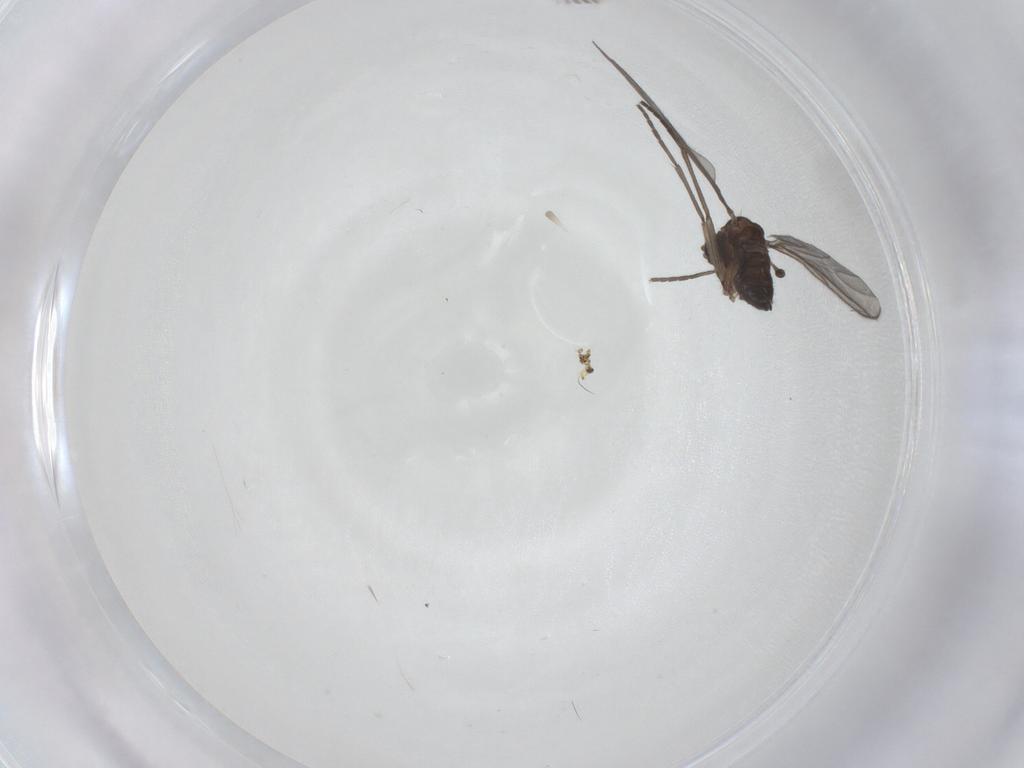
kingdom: Animalia
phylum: Arthropoda
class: Insecta
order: Diptera
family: Sciaridae
